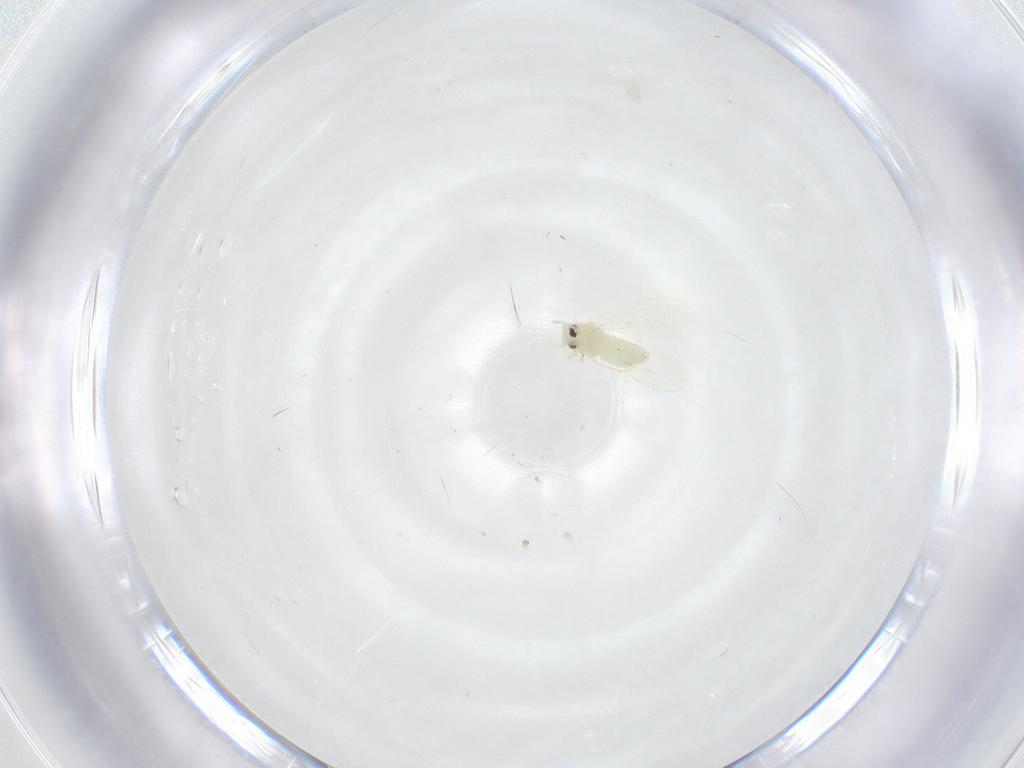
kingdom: Animalia
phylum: Arthropoda
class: Insecta
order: Hemiptera
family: Aleyrodidae
